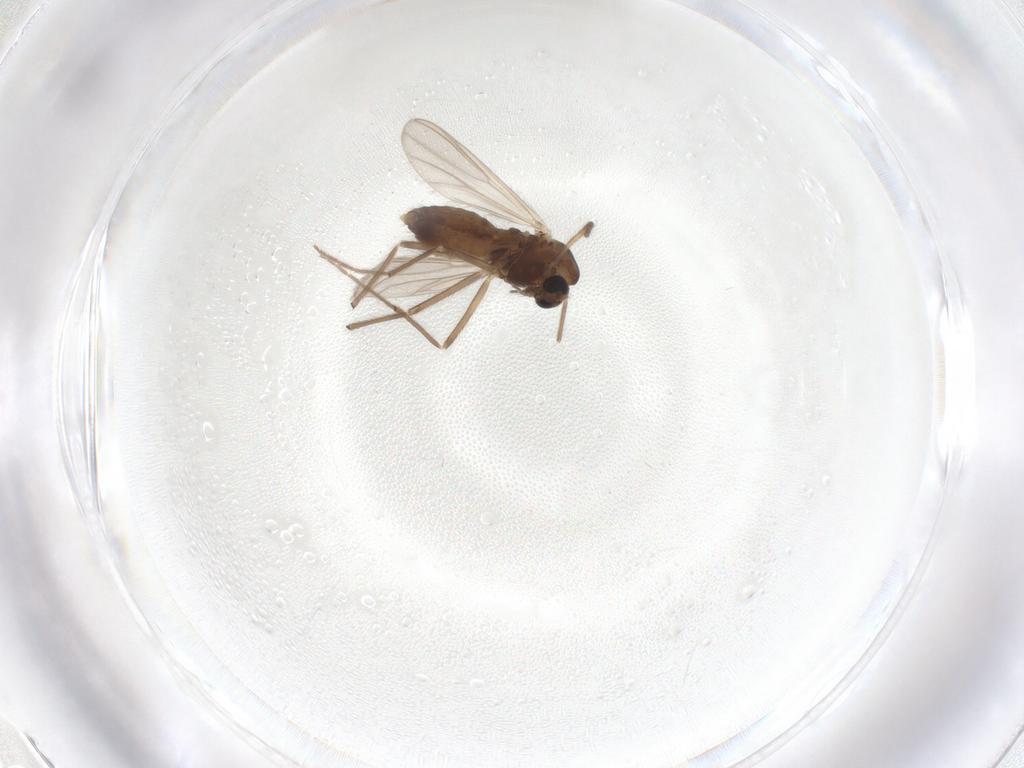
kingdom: Animalia
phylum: Arthropoda
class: Insecta
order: Diptera
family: Chironomidae
